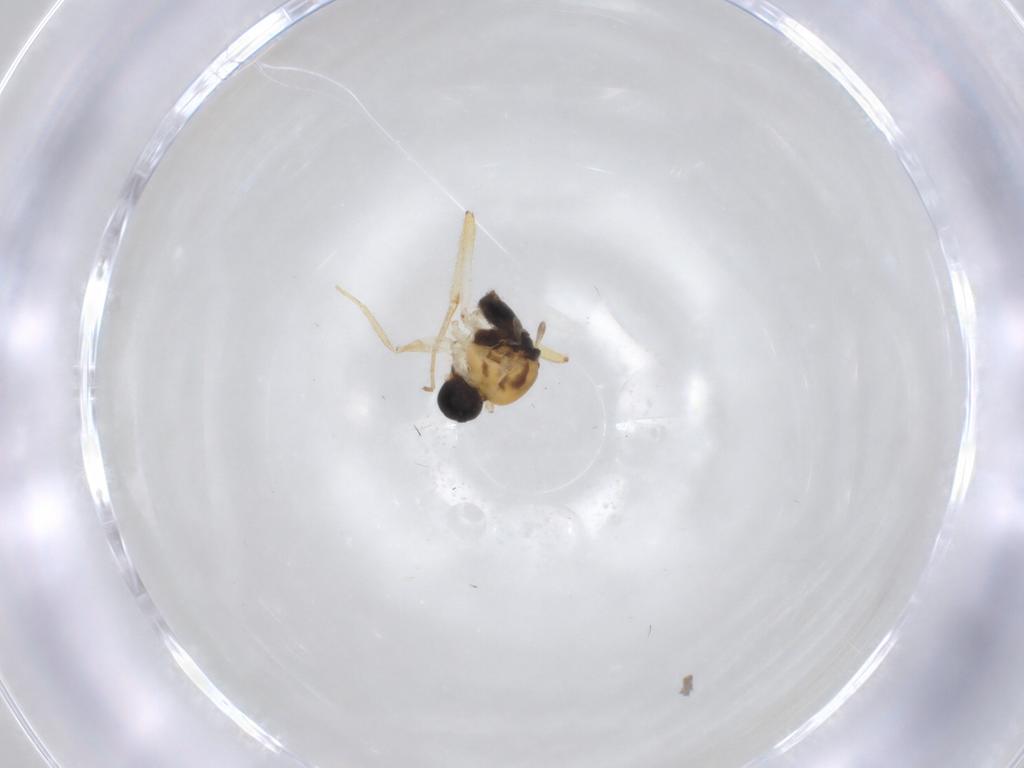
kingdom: Animalia
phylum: Arthropoda
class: Insecta
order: Diptera
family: Hybotidae
